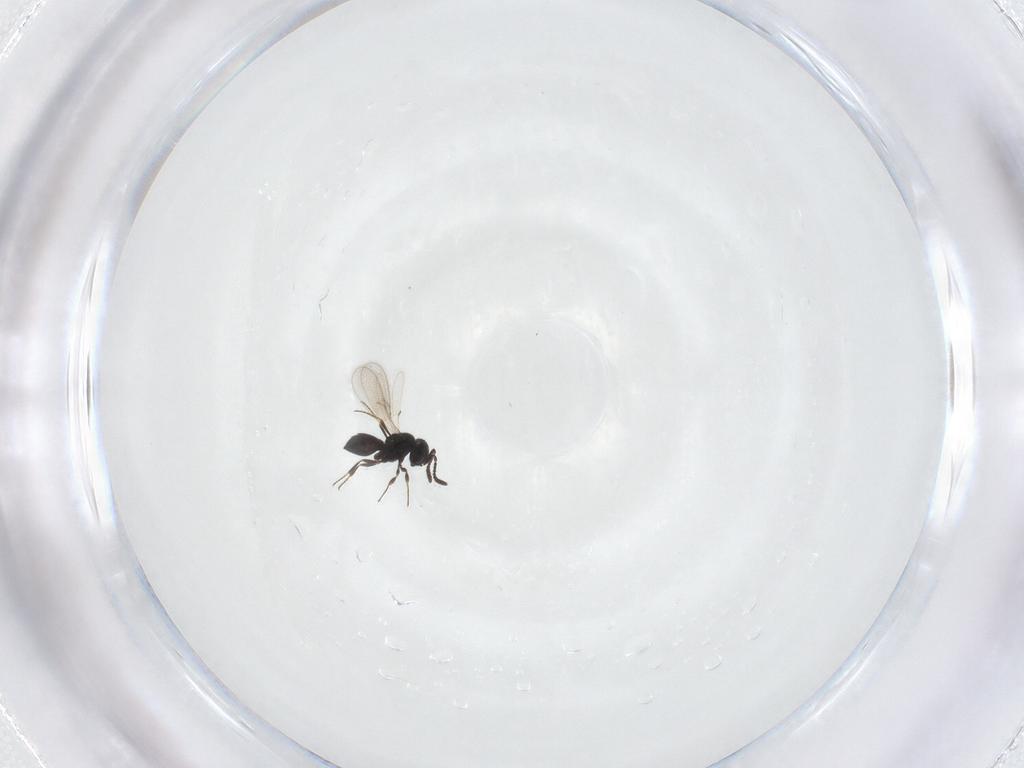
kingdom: Animalia
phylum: Arthropoda
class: Insecta
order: Hymenoptera
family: Scelionidae
